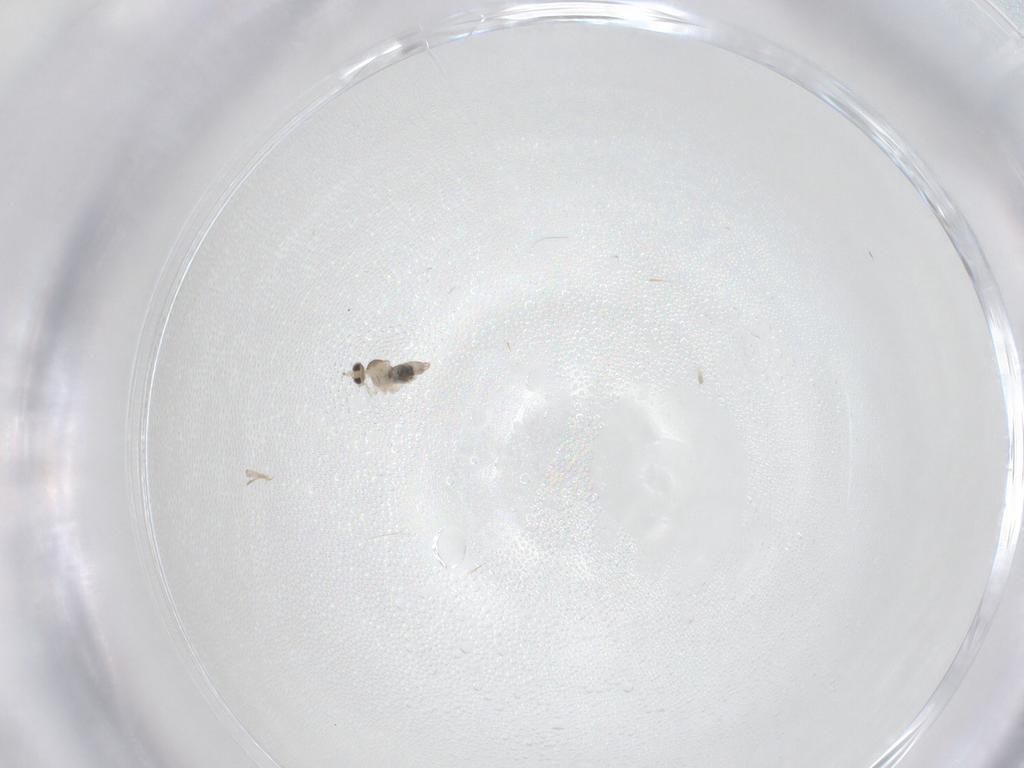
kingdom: Animalia
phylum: Arthropoda
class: Insecta
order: Diptera
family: Cecidomyiidae
